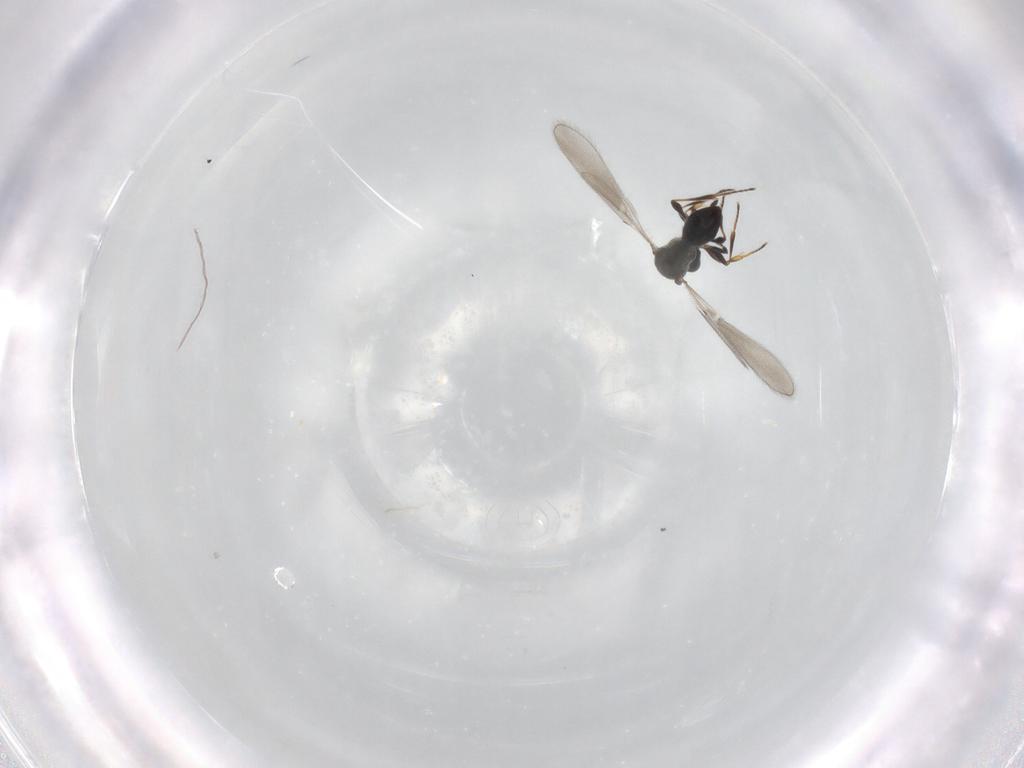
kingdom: Animalia
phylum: Arthropoda
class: Insecta
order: Hymenoptera
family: Platygastridae
